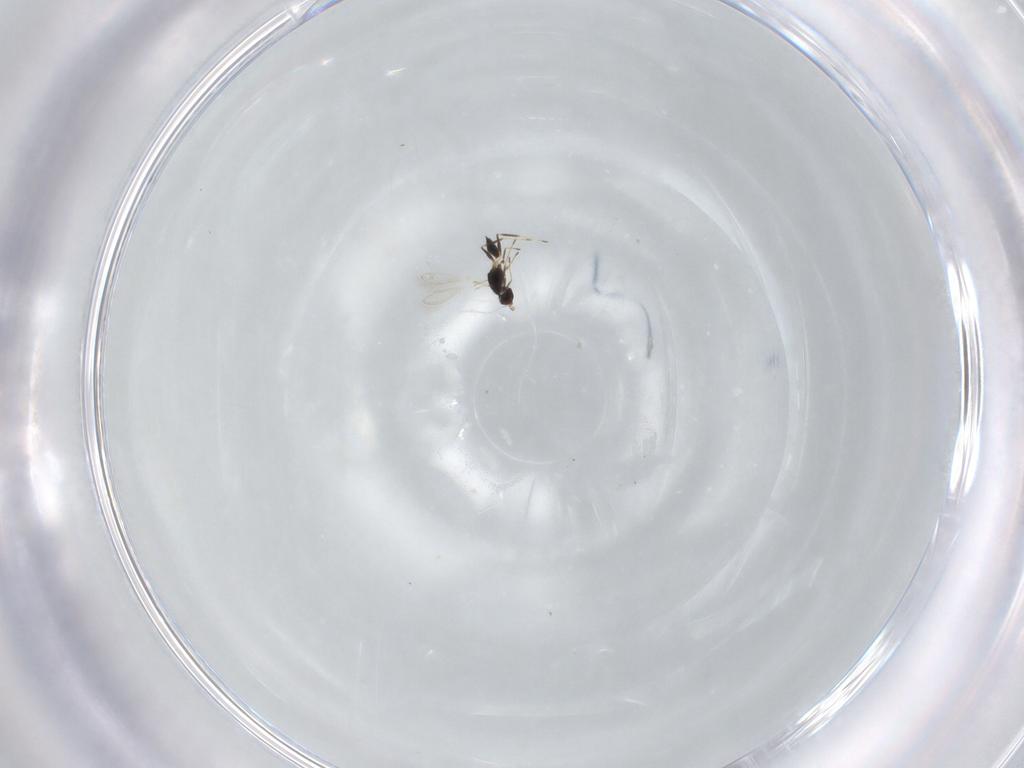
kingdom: Animalia
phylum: Arthropoda
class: Insecta
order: Hymenoptera
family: Mymaridae
